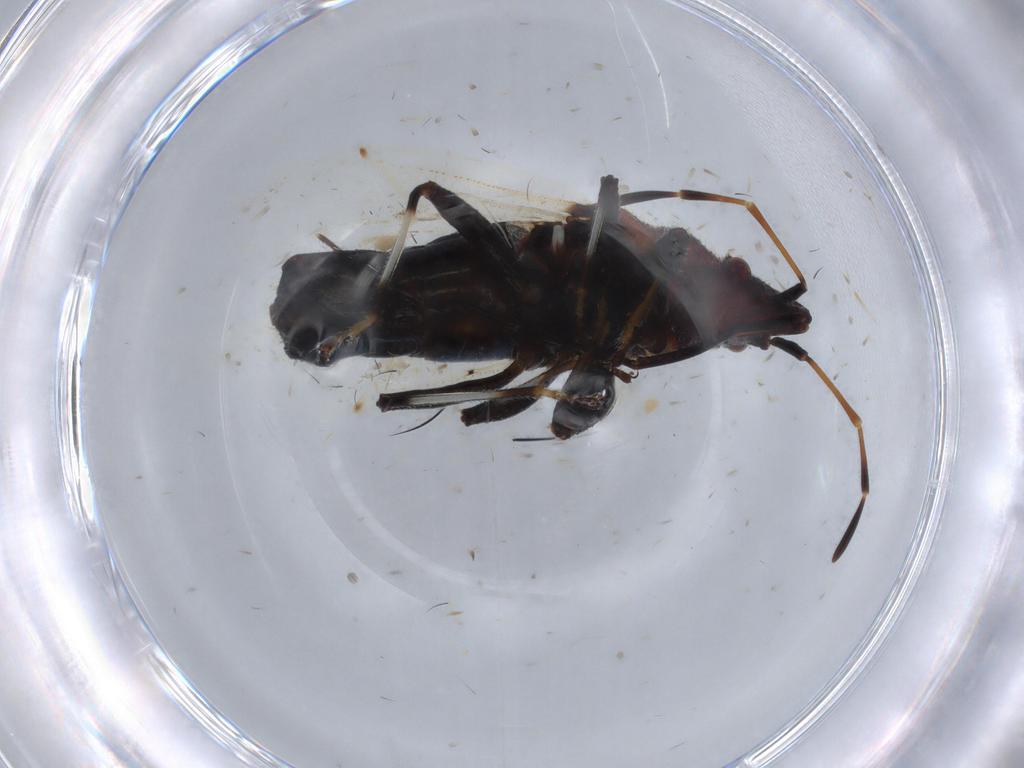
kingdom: Animalia
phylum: Arthropoda
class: Insecta
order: Hemiptera
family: Oxycarenidae
